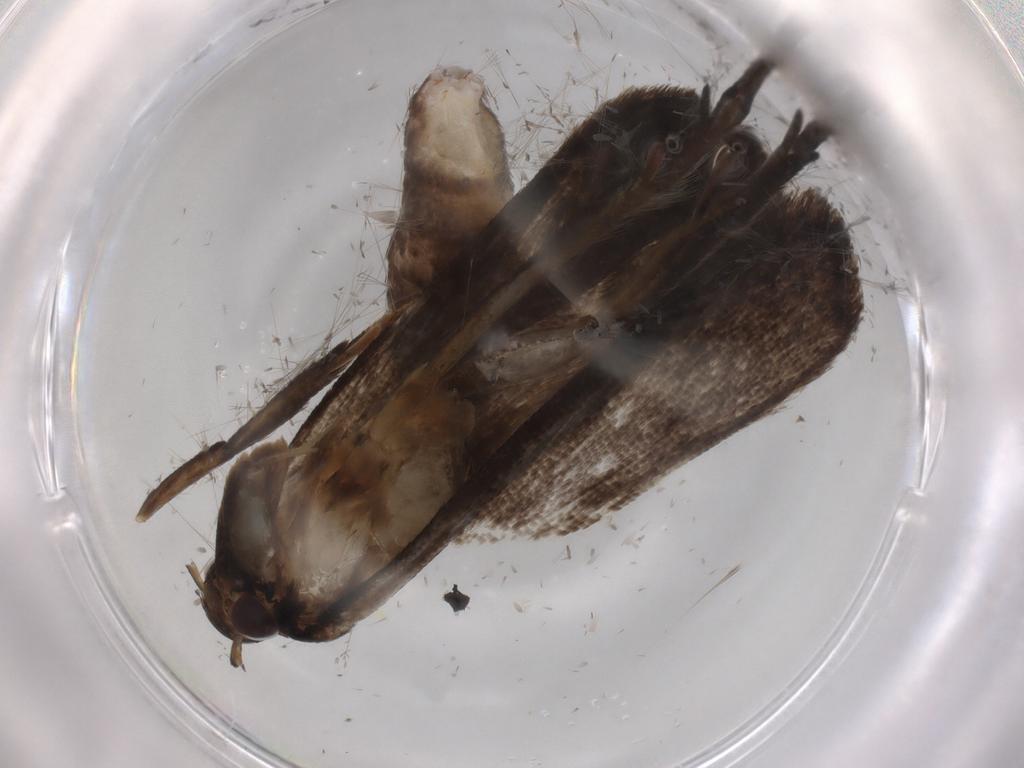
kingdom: Animalia
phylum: Arthropoda
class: Insecta
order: Lepidoptera
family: Gelechiidae
